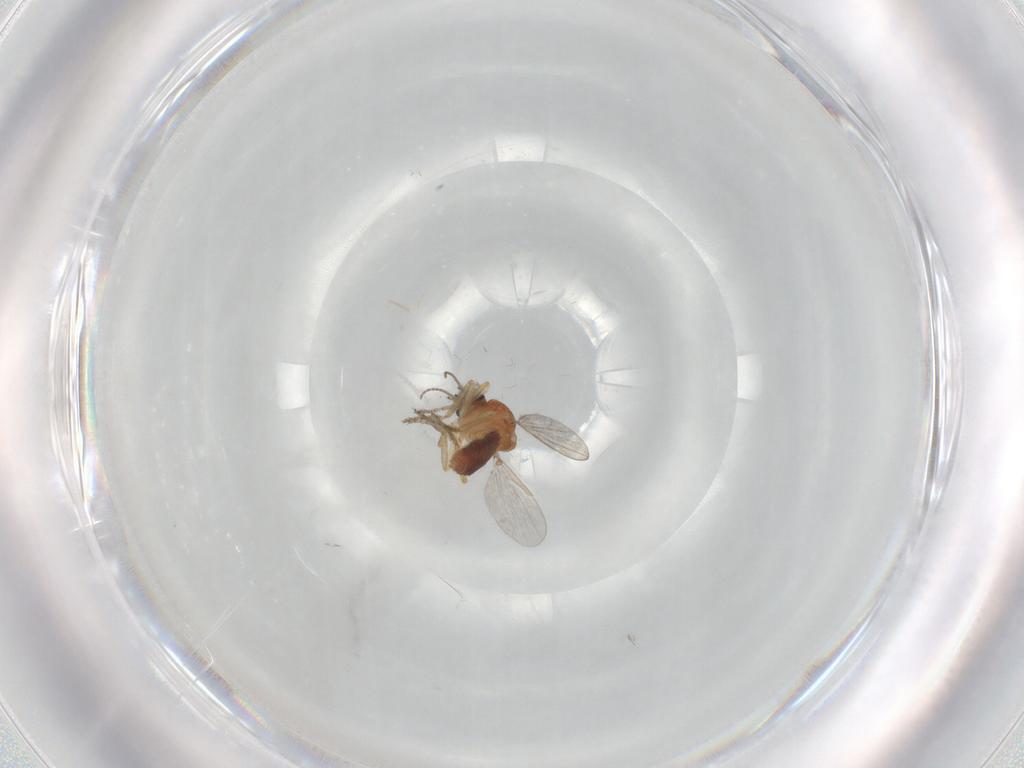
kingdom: Animalia
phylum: Arthropoda
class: Insecta
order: Diptera
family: Ceratopogonidae
